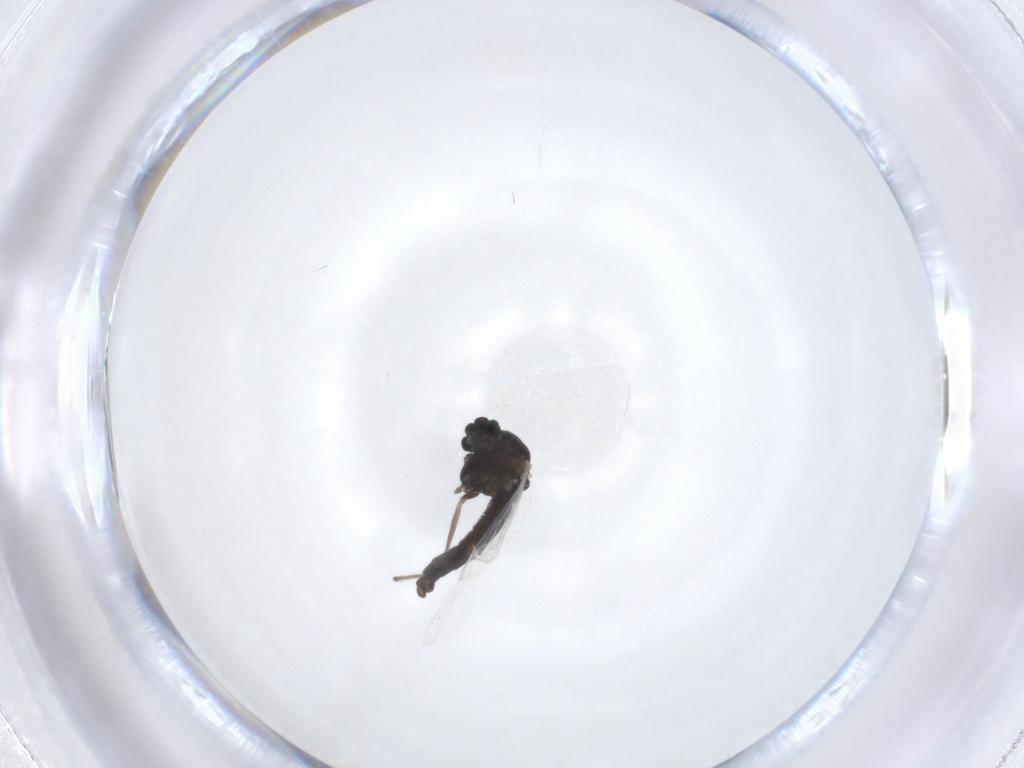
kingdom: Animalia
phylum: Arthropoda
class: Insecta
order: Diptera
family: Chironomidae
